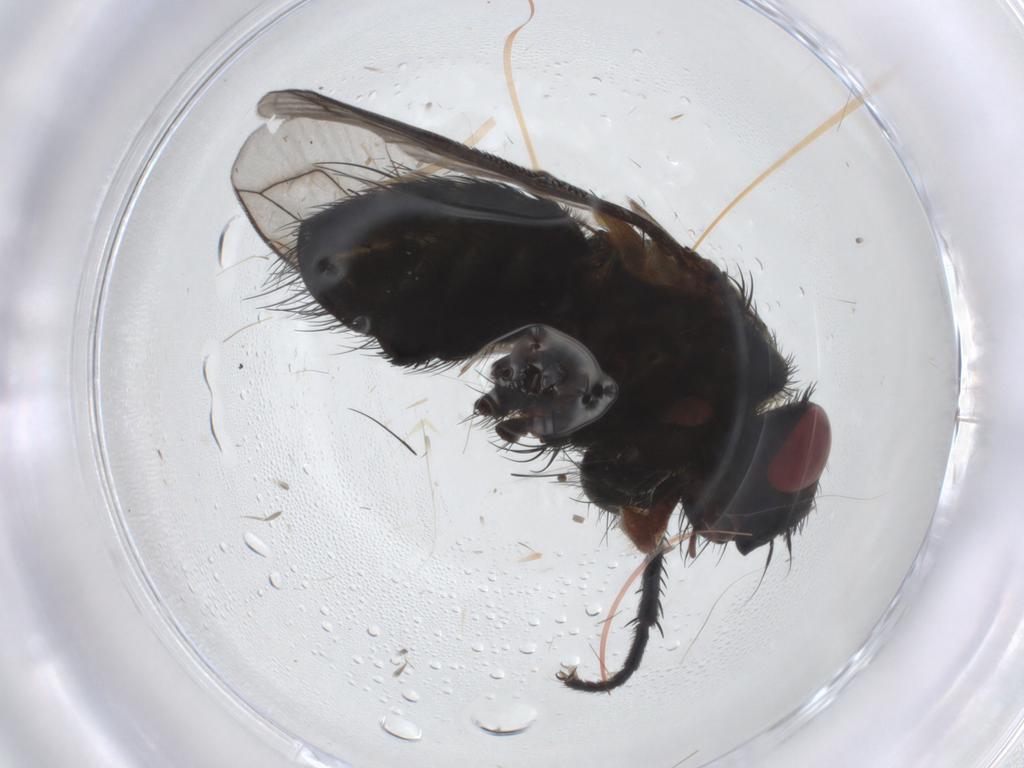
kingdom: Animalia
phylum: Arthropoda
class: Insecta
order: Diptera
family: Tachinidae
